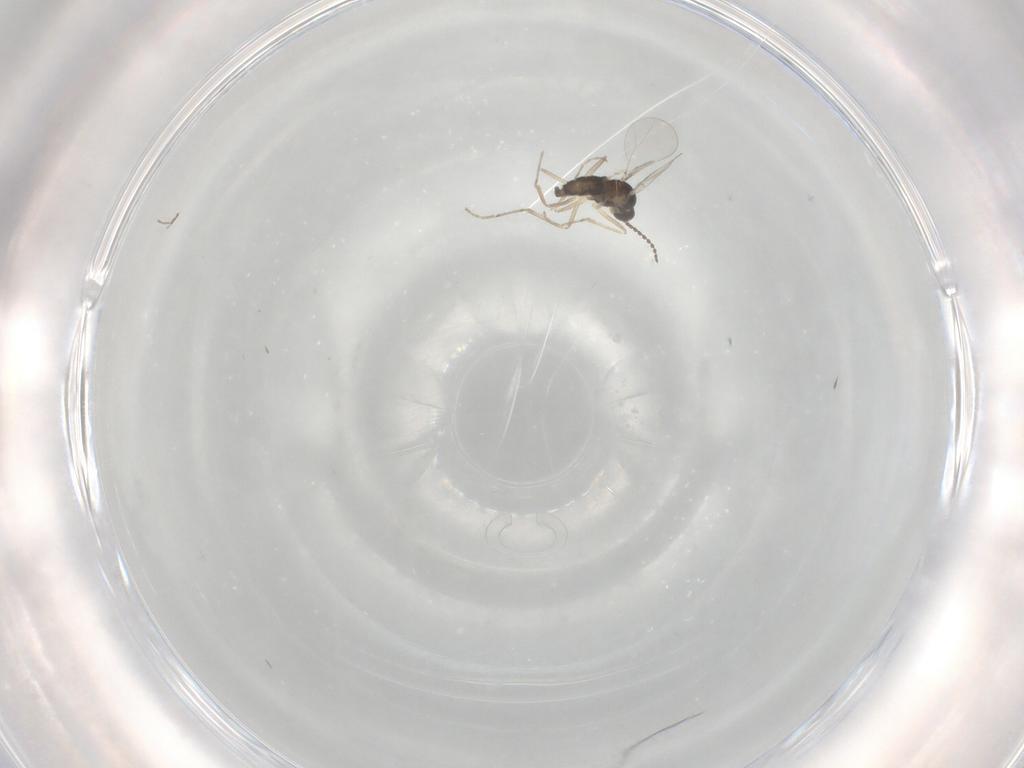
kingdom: Animalia
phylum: Arthropoda
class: Insecta
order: Diptera
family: Cecidomyiidae
